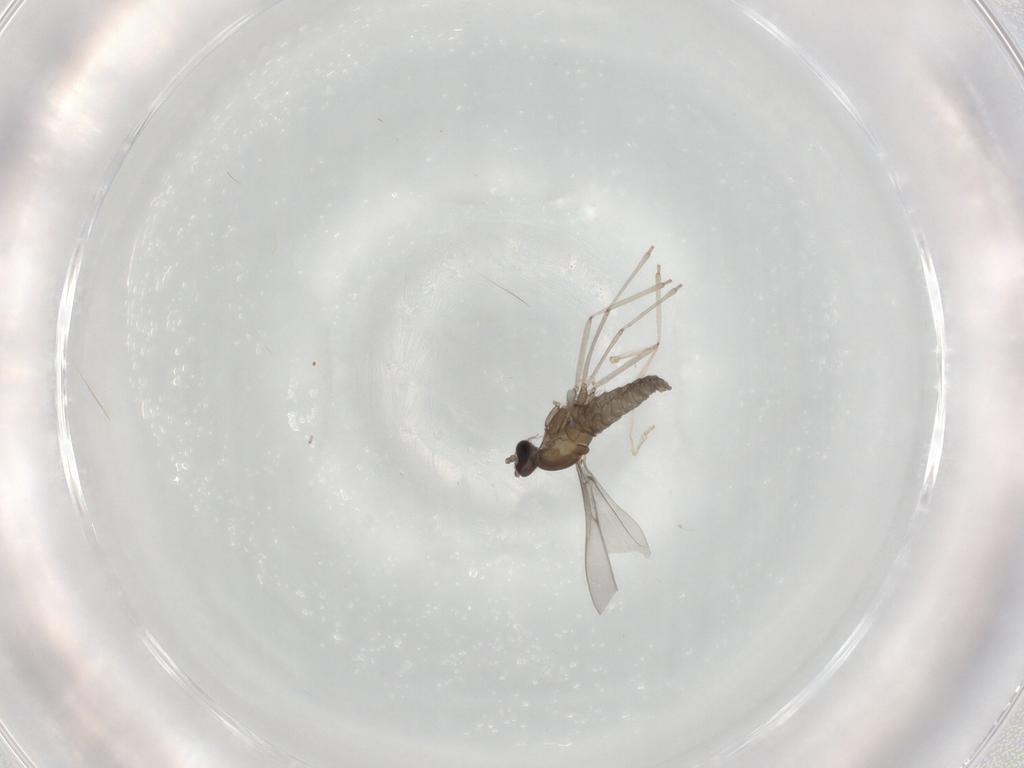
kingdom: Animalia
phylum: Arthropoda
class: Insecta
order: Diptera
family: Cecidomyiidae
